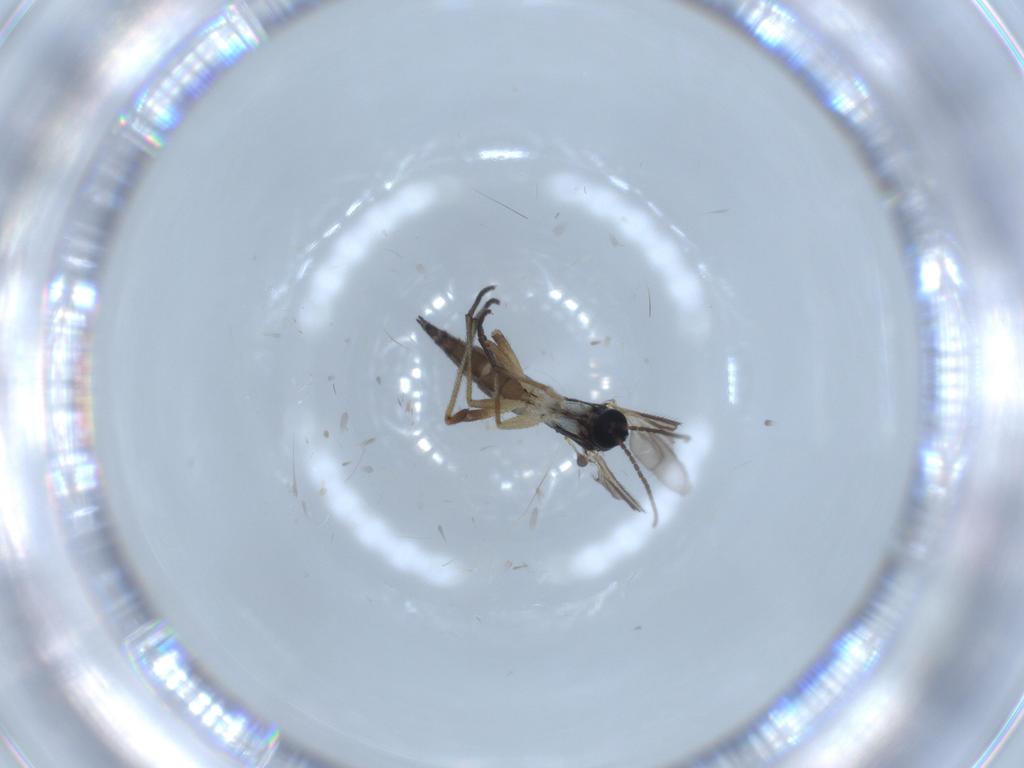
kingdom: Animalia
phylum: Arthropoda
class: Insecta
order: Diptera
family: Sciaridae
